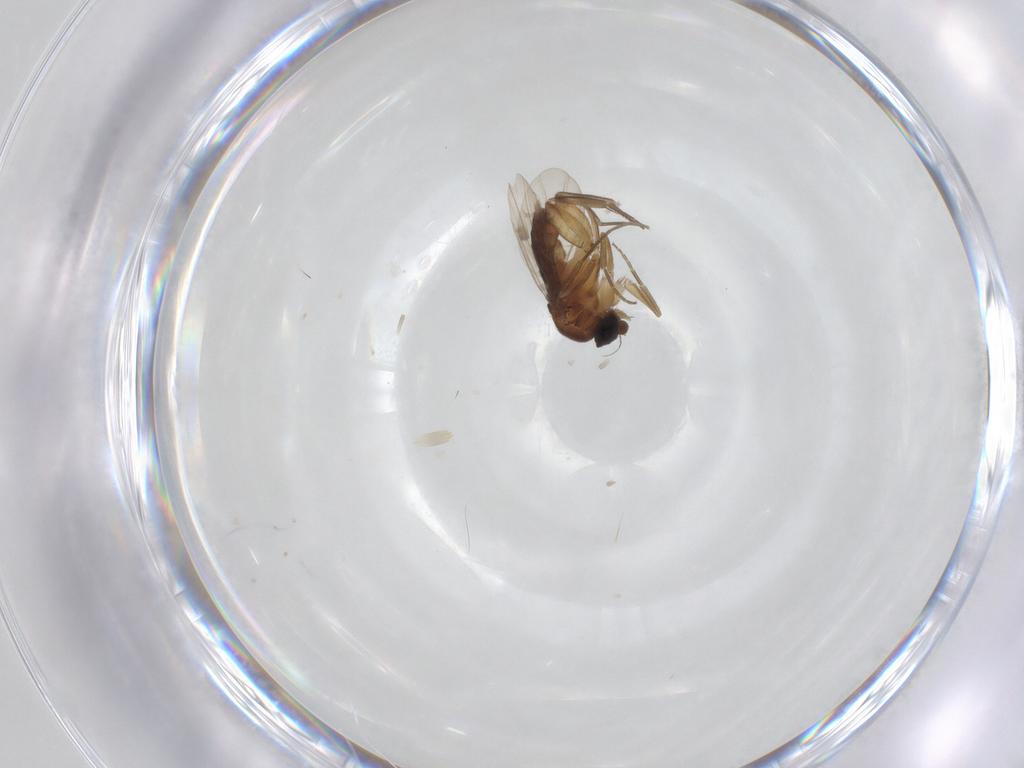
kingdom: Animalia
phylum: Arthropoda
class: Insecta
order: Diptera
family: Phoridae
